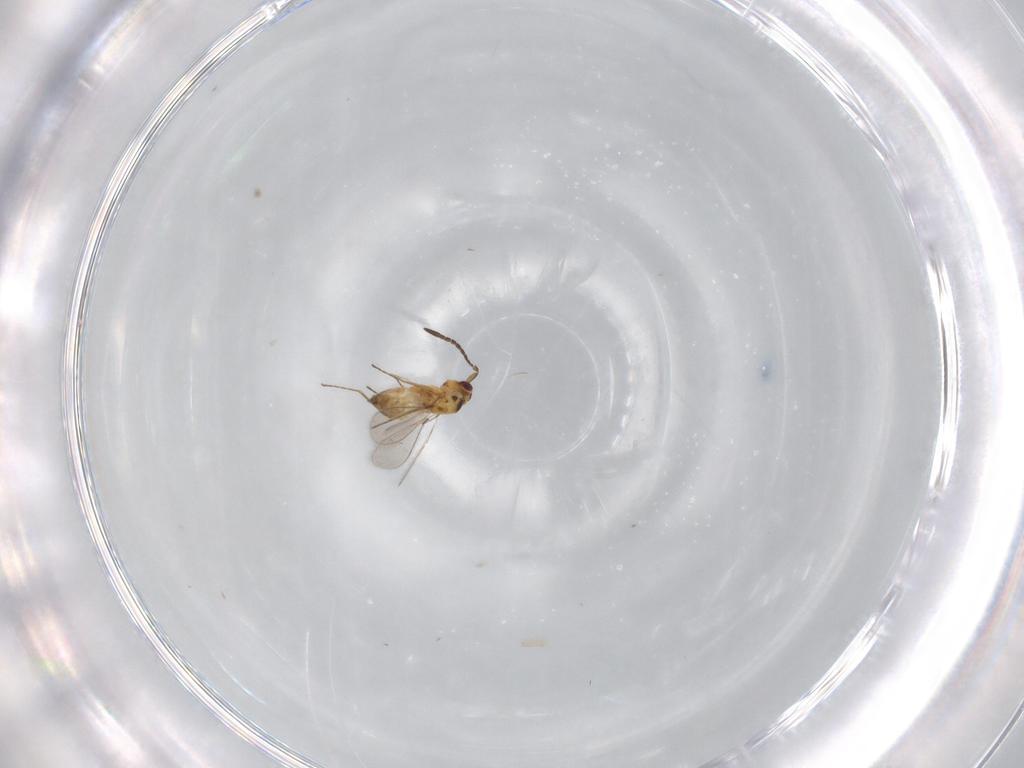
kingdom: Animalia
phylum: Arthropoda
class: Insecta
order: Hymenoptera
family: Mymaridae
